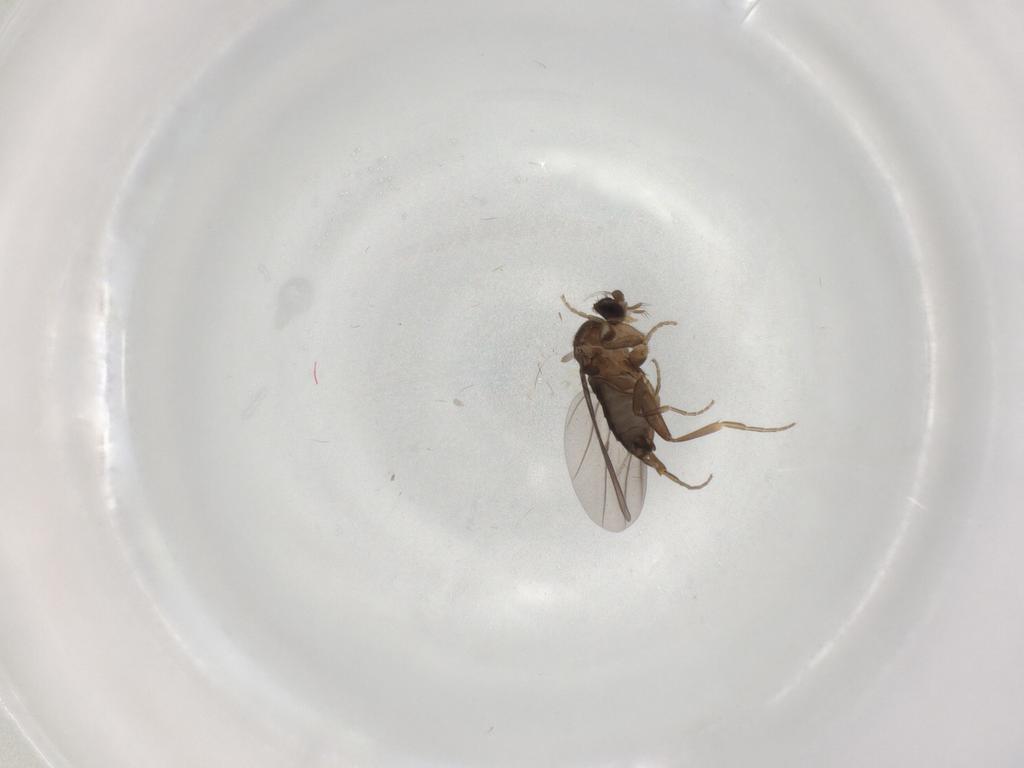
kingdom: Animalia
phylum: Arthropoda
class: Insecta
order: Diptera
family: Phoridae
